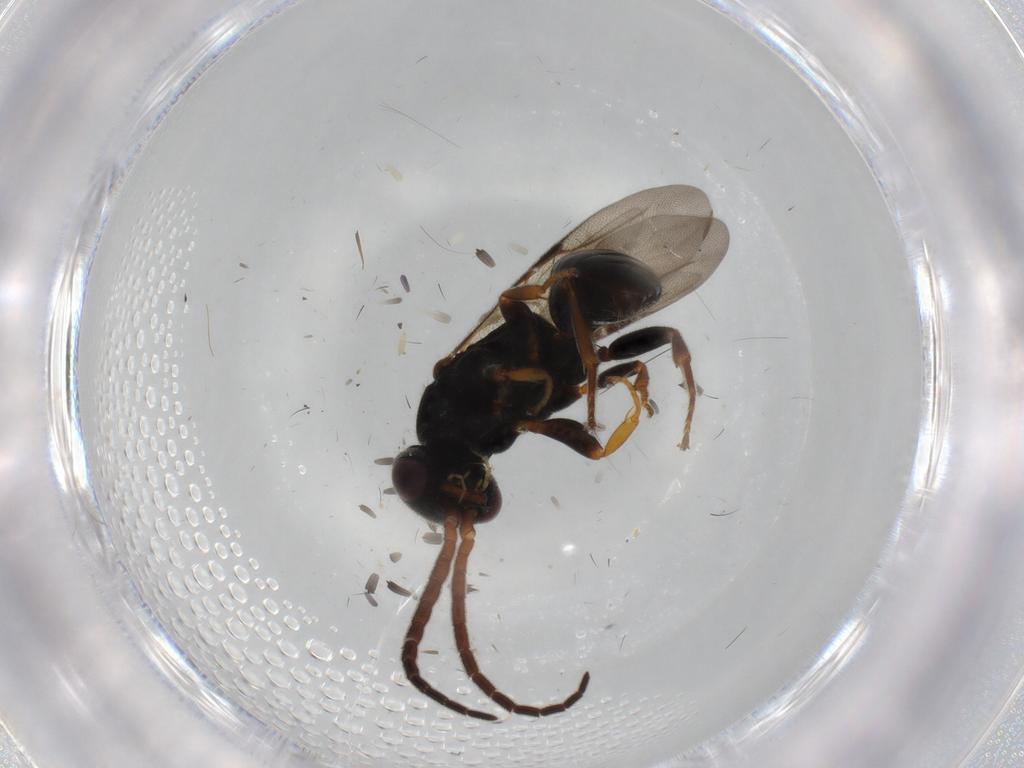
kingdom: Animalia
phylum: Arthropoda
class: Insecta
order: Hymenoptera
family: Bethylidae
